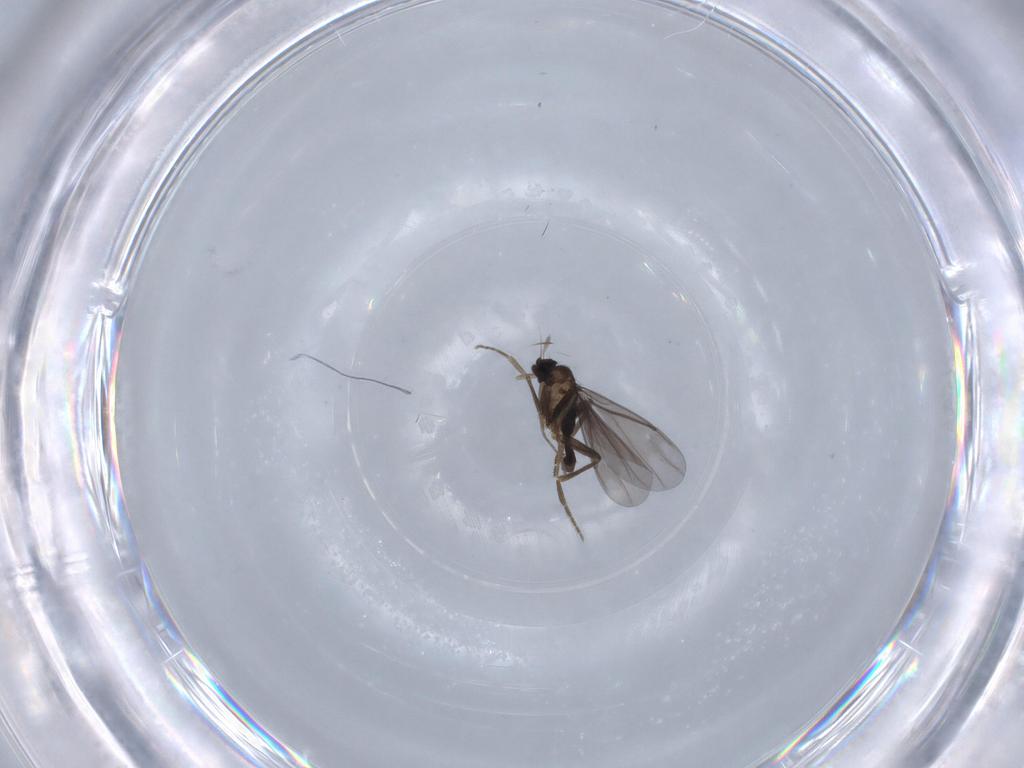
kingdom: Animalia
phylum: Arthropoda
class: Insecta
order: Diptera
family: Phoridae
